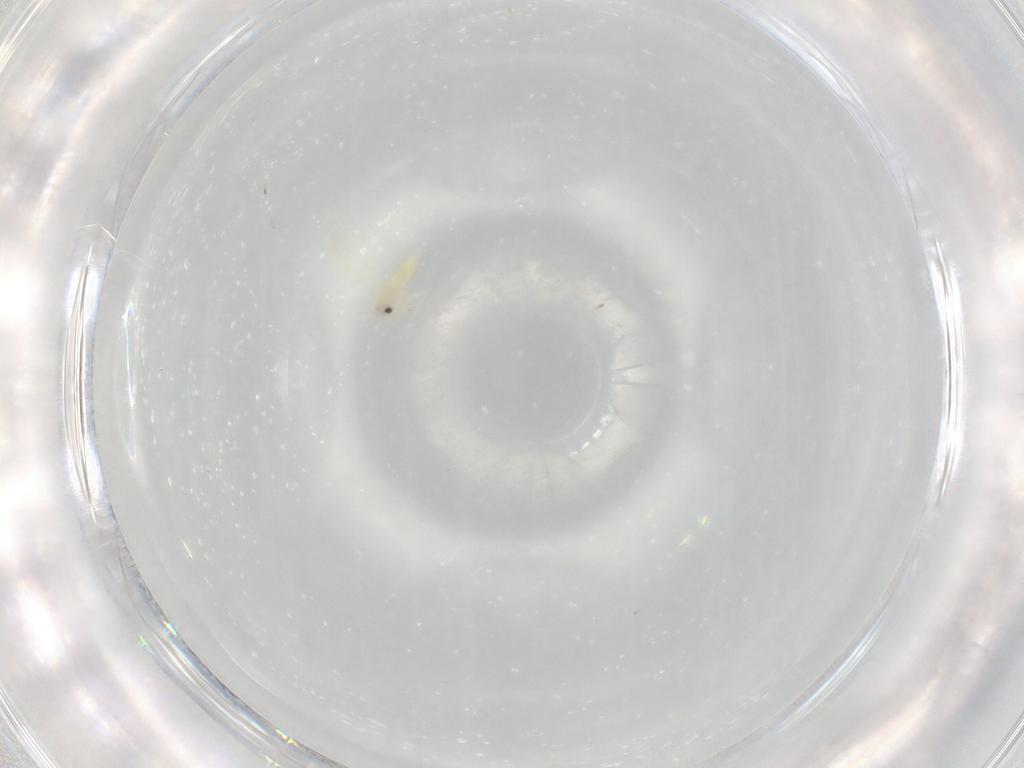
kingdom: Animalia
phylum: Arthropoda
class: Insecta
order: Hemiptera
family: Aleyrodidae
